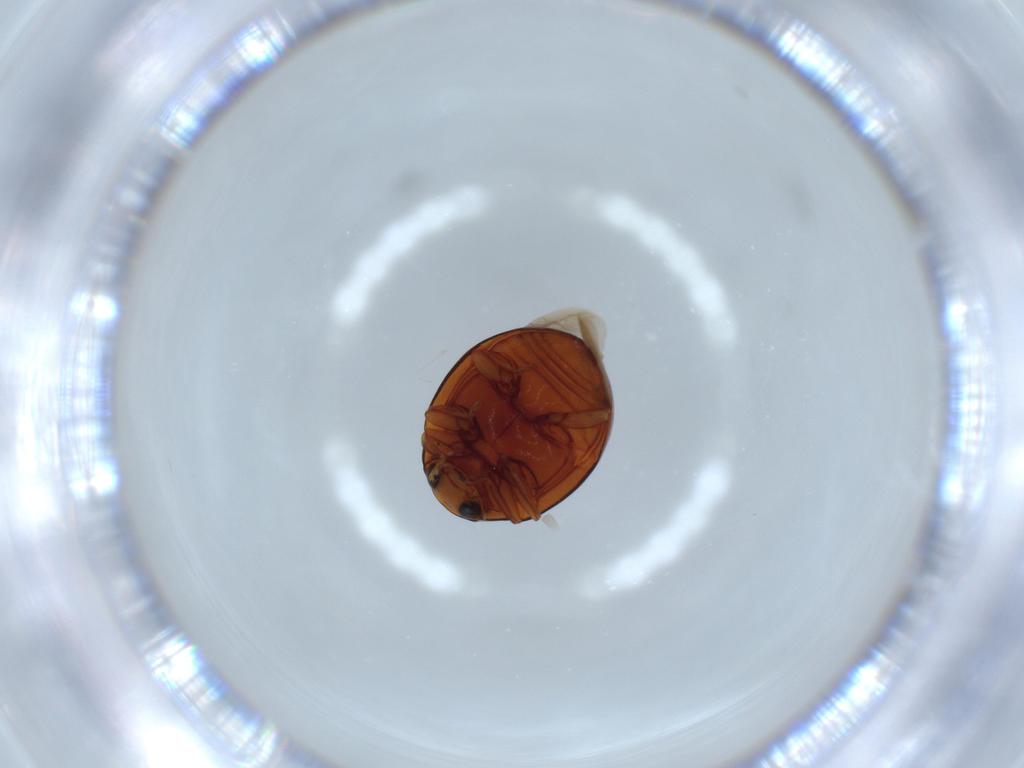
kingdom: Animalia
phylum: Arthropoda
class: Insecta
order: Coleoptera
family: Coccinellidae
